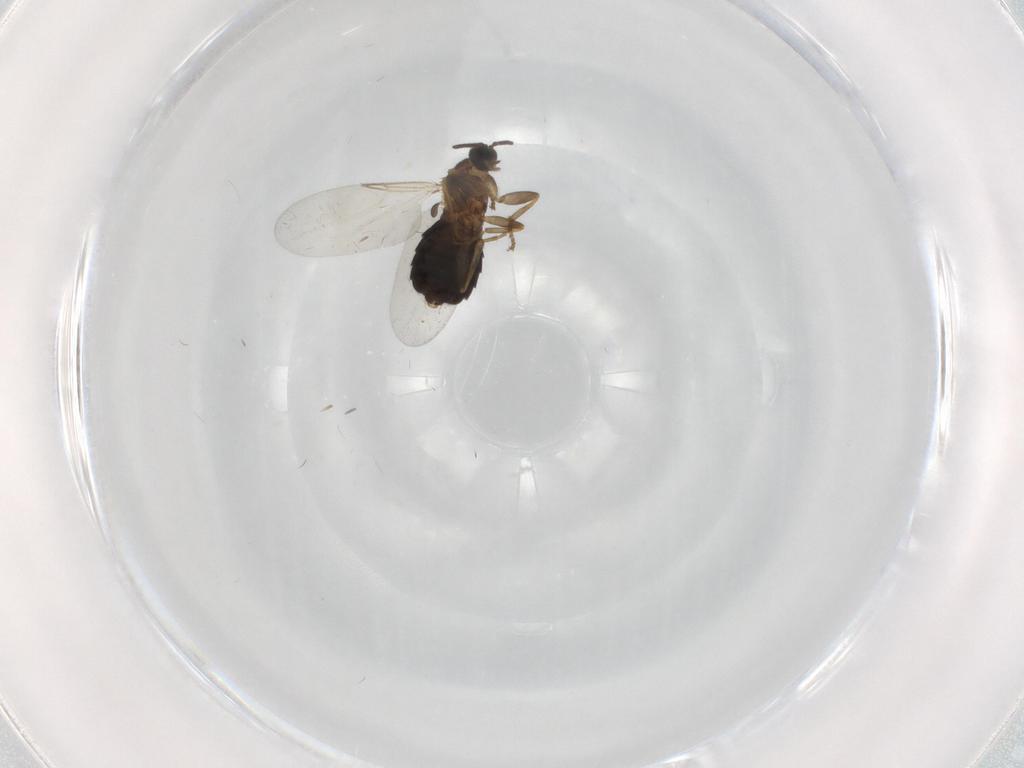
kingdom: Animalia
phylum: Arthropoda
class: Insecta
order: Diptera
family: Scatopsidae
